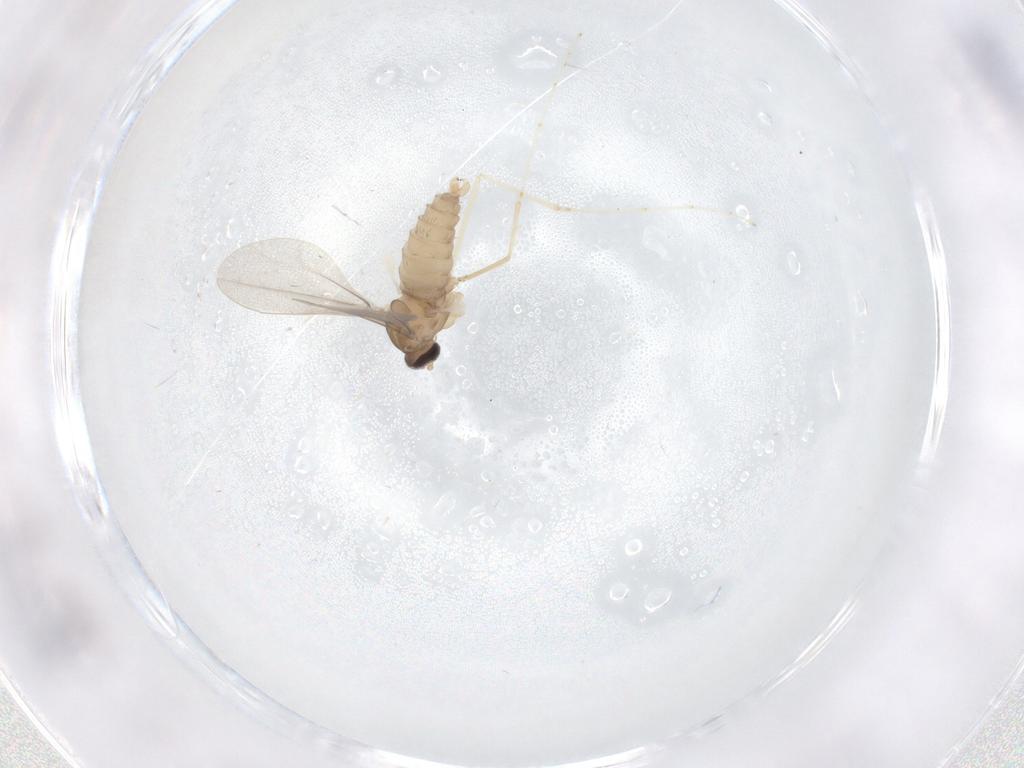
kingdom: Animalia
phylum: Arthropoda
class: Insecta
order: Diptera
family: Cecidomyiidae
